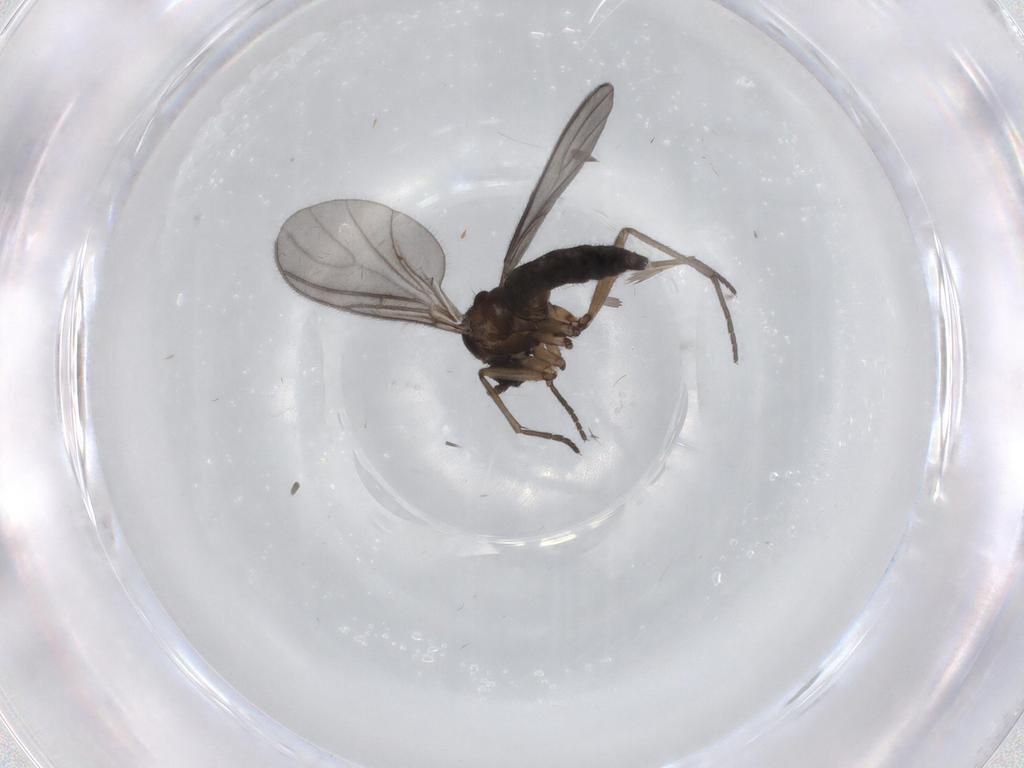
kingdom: Animalia
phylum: Arthropoda
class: Insecta
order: Diptera
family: Sciaridae
